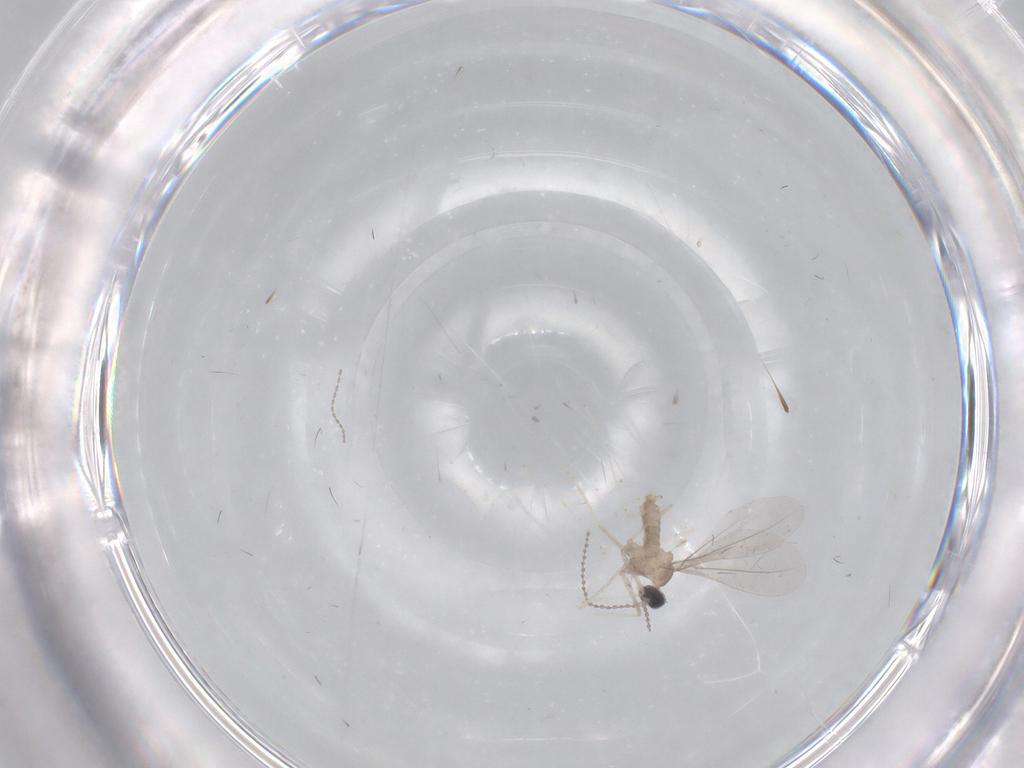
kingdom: Animalia
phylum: Arthropoda
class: Insecta
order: Diptera
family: Cecidomyiidae
